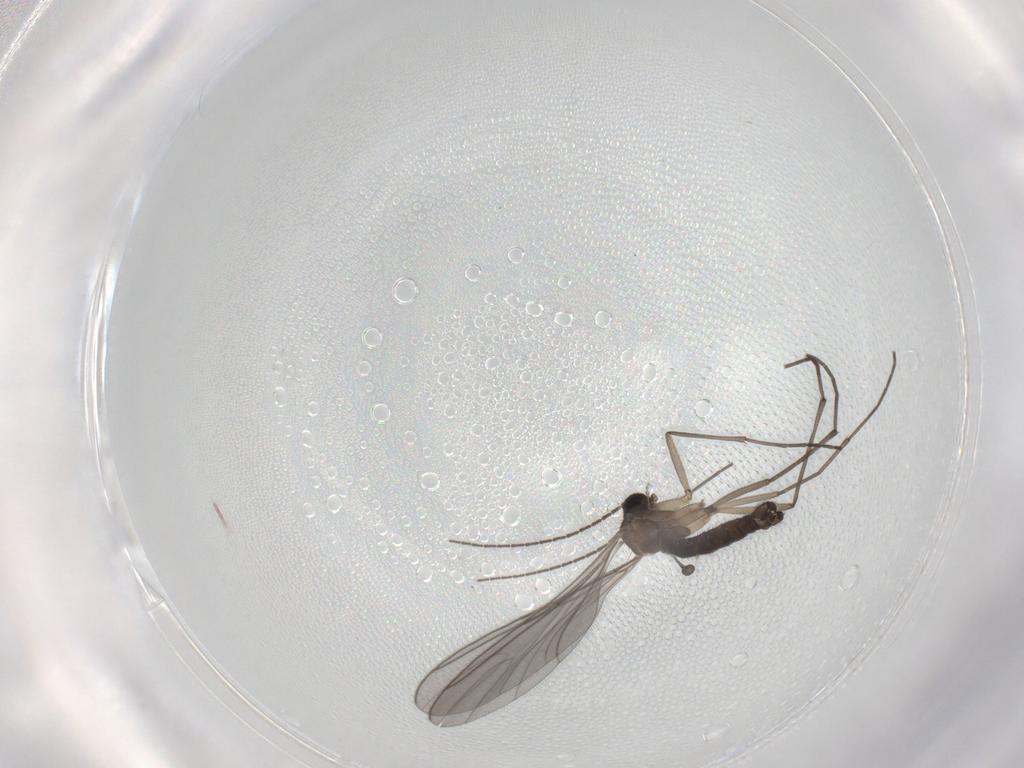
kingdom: Animalia
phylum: Arthropoda
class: Insecta
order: Diptera
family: Sciaridae
